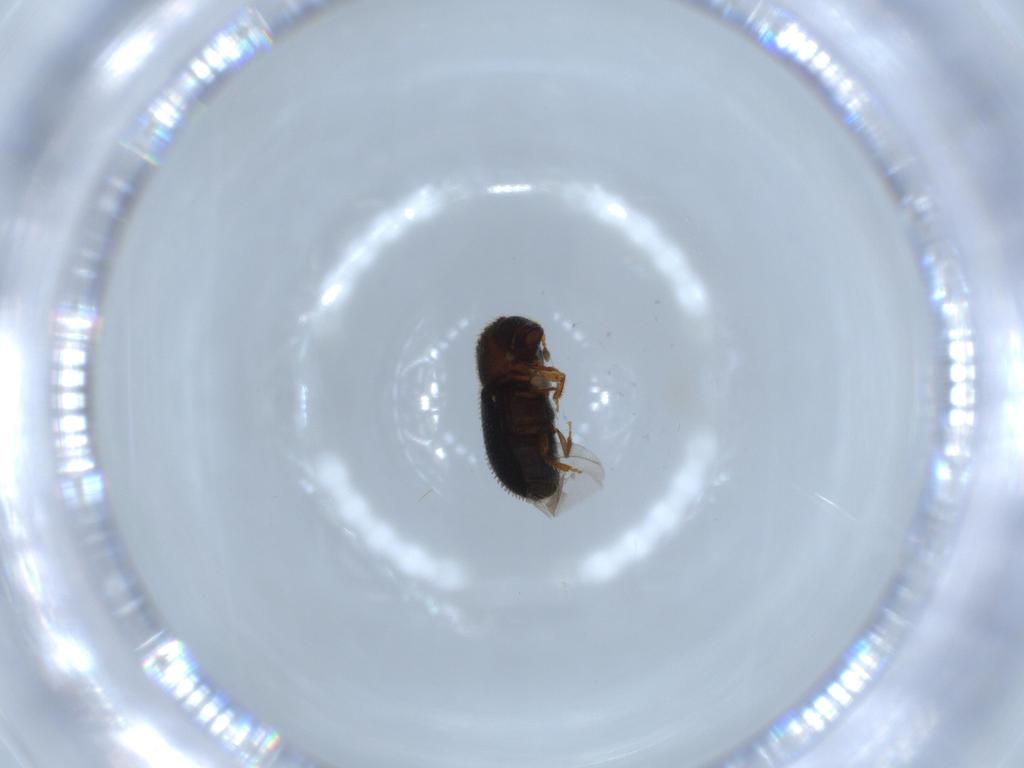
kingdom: Animalia
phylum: Arthropoda
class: Insecta
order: Coleoptera
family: Curculionidae
